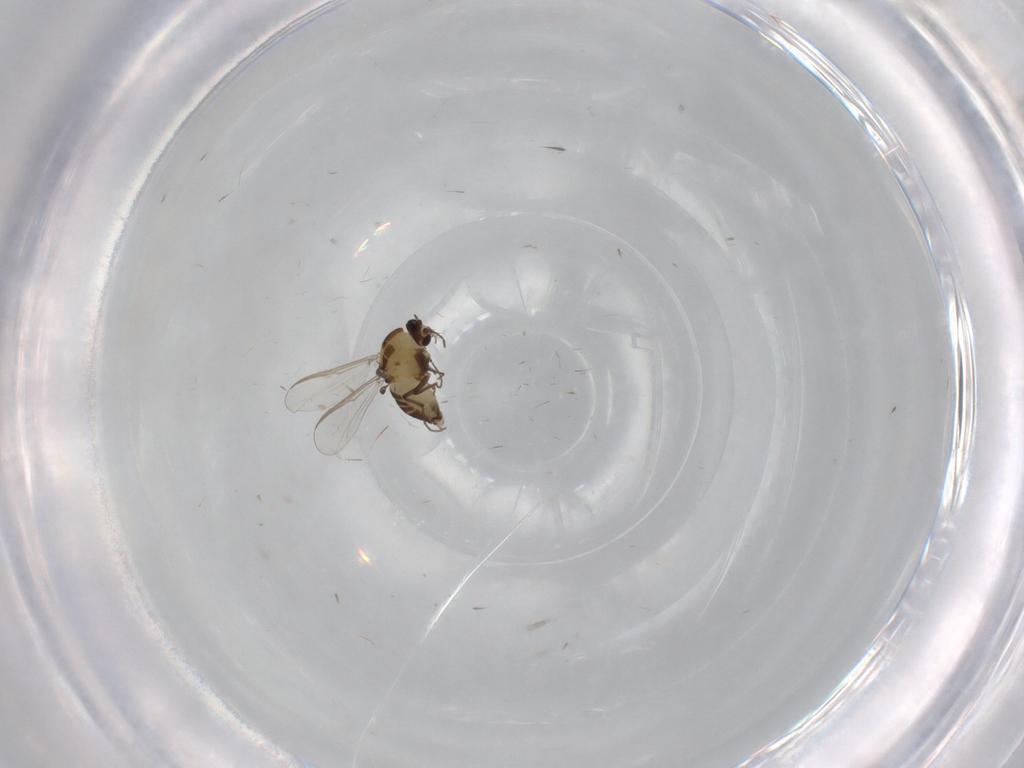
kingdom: Animalia
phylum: Arthropoda
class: Insecta
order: Diptera
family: Chironomidae
